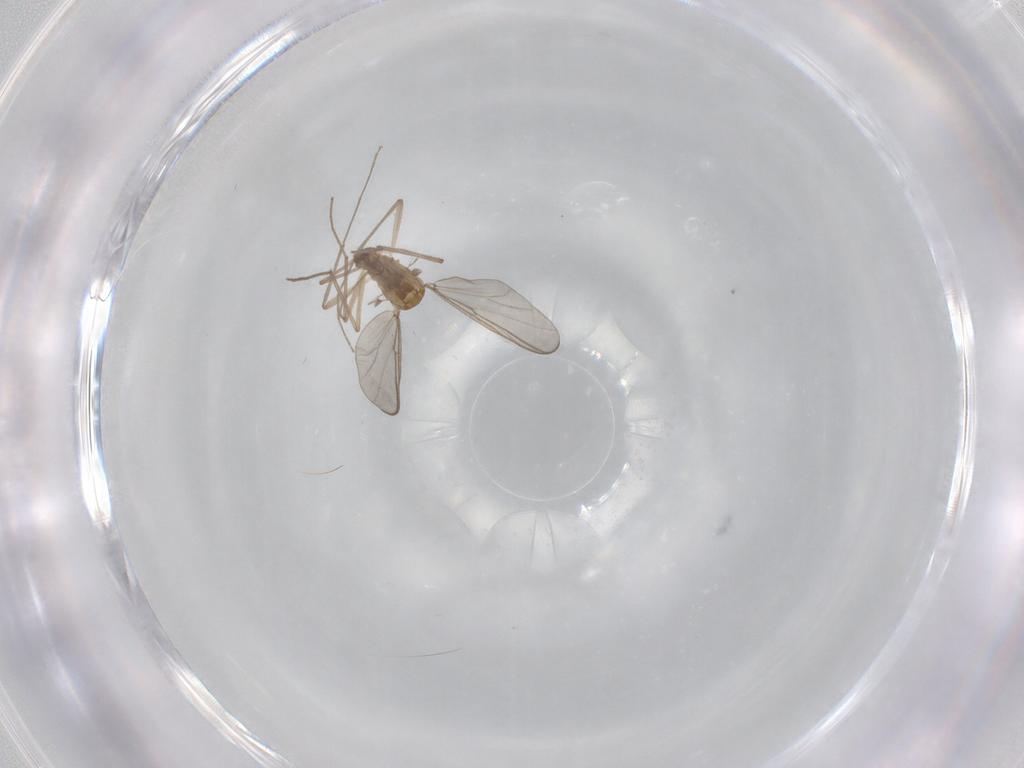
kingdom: Animalia
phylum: Arthropoda
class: Insecta
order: Diptera
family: Chironomidae
